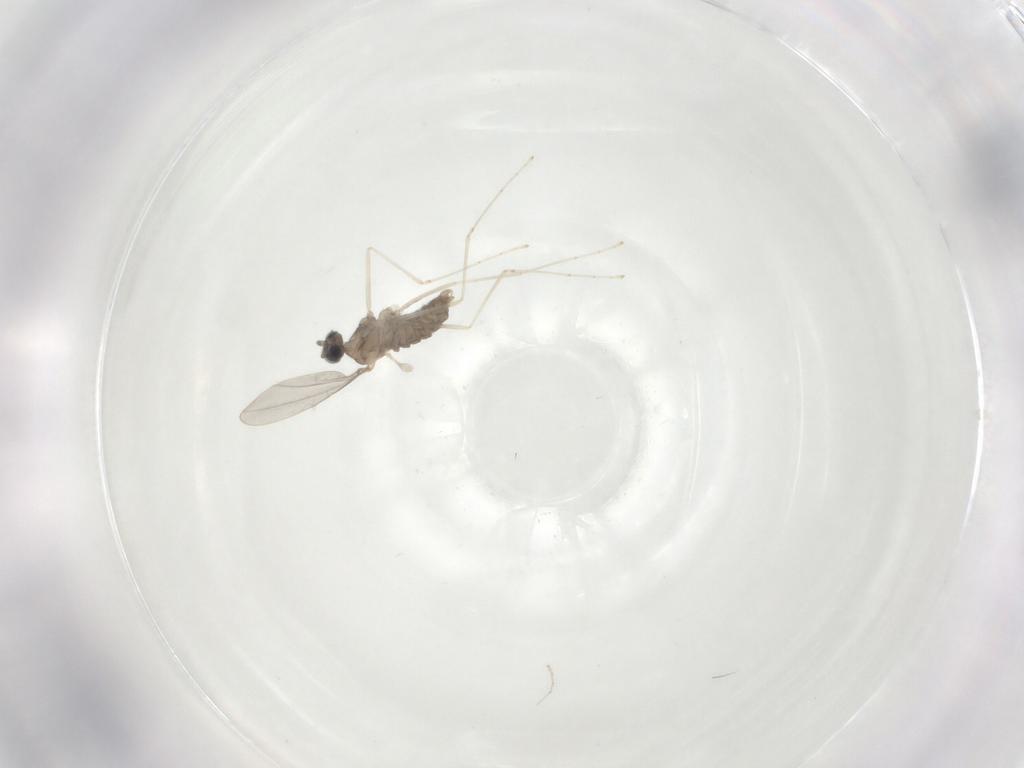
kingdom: Animalia
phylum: Arthropoda
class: Insecta
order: Diptera
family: Cecidomyiidae
